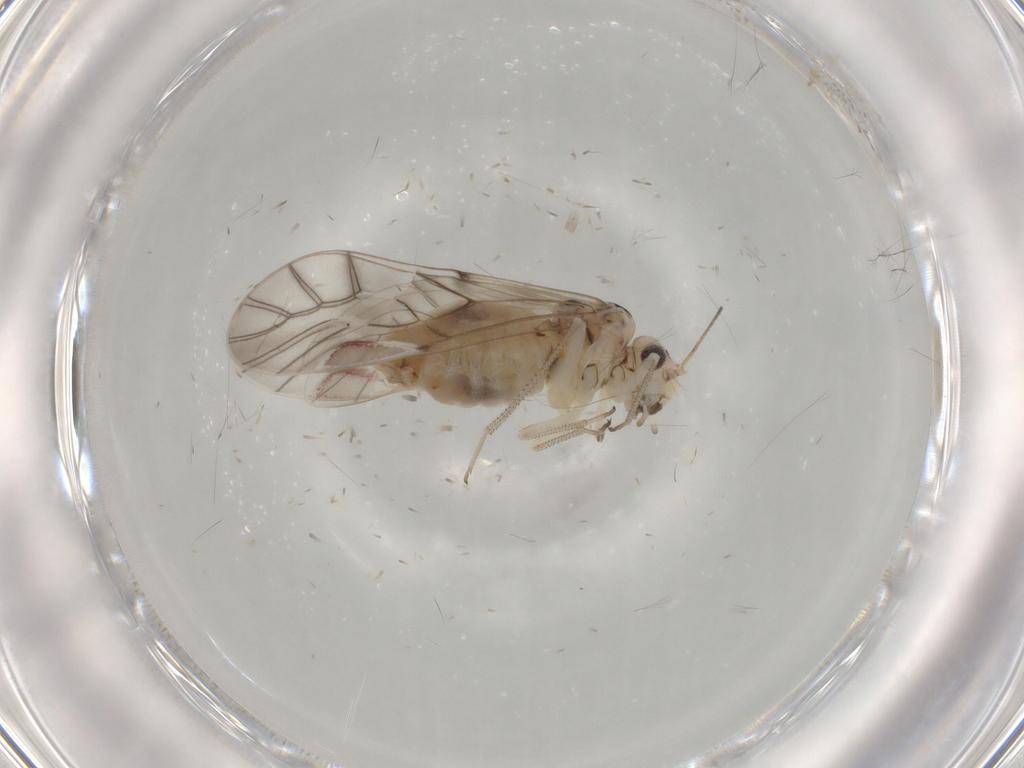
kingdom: Animalia
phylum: Arthropoda
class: Insecta
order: Psocodea
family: Psocidae
